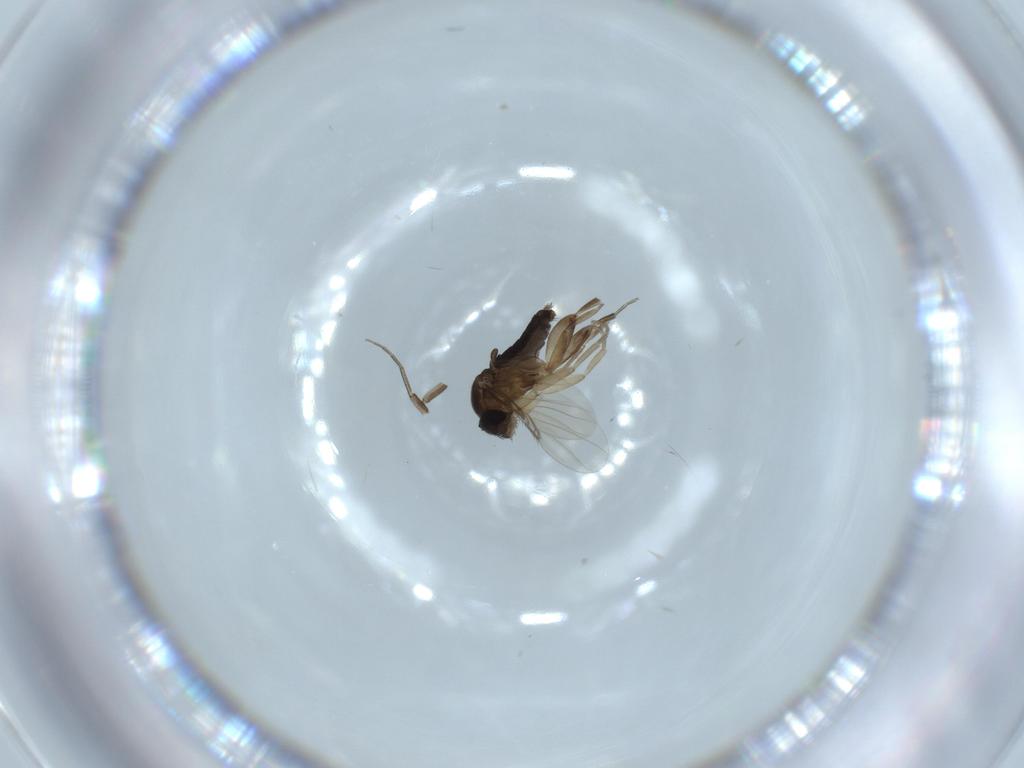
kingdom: Animalia
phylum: Arthropoda
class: Insecta
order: Diptera
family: Phoridae
